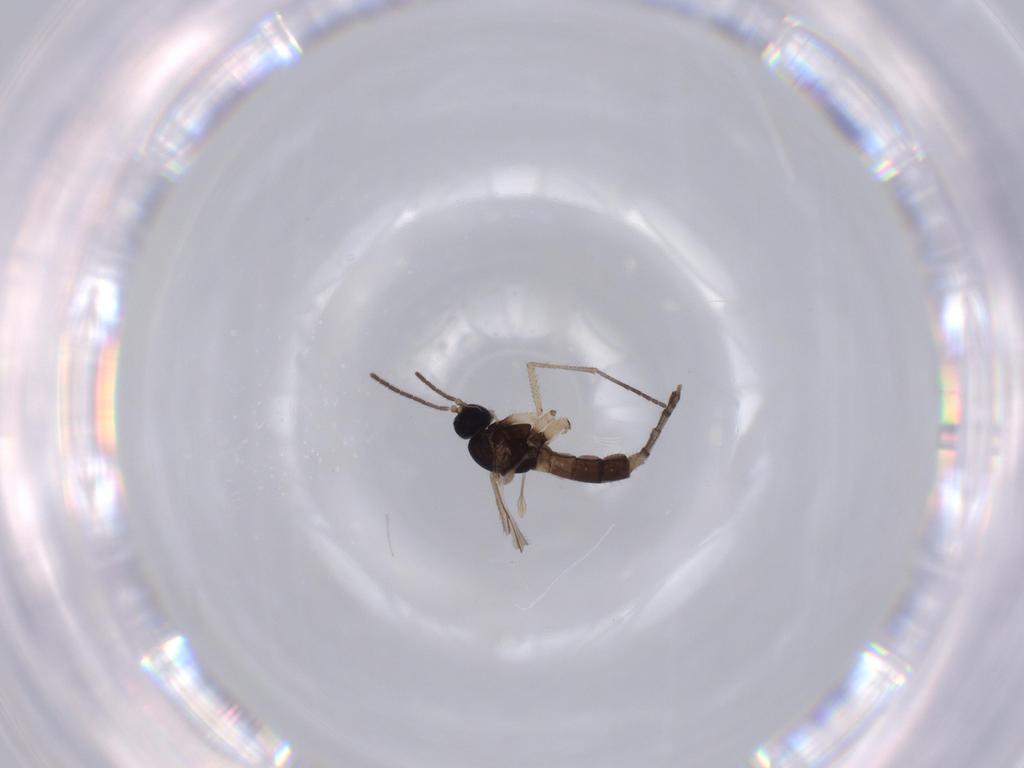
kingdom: Animalia
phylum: Arthropoda
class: Insecta
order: Diptera
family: Sciaridae
